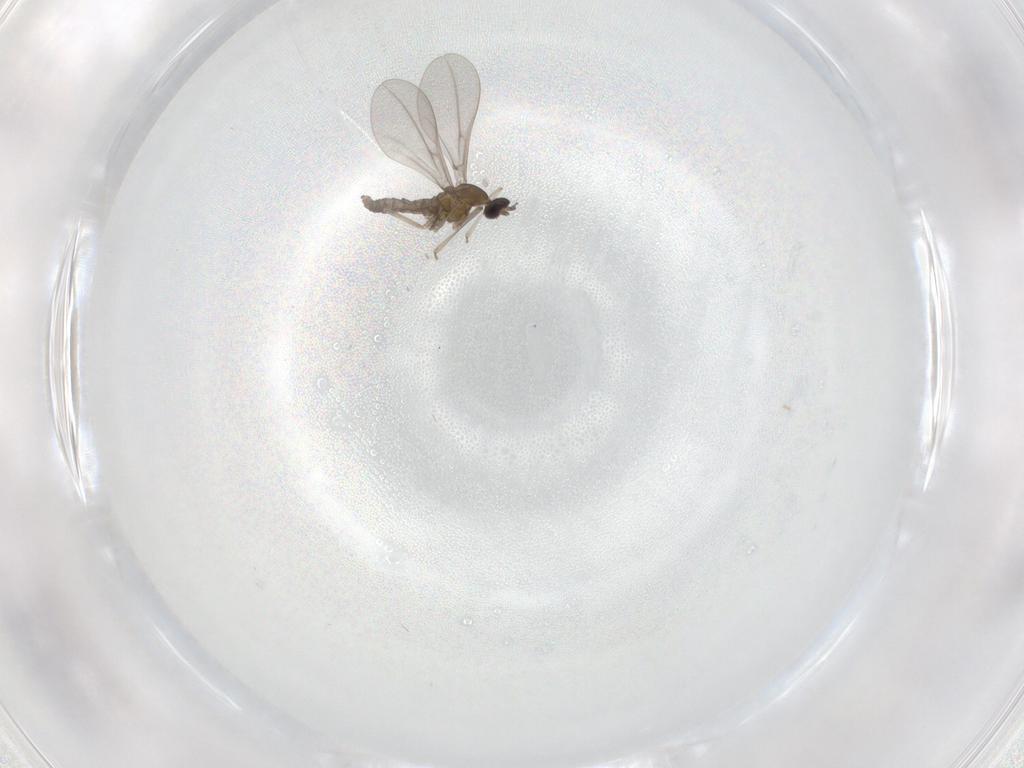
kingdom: Animalia
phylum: Arthropoda
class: Insecta
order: Diptera
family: Cecidomyiidae
